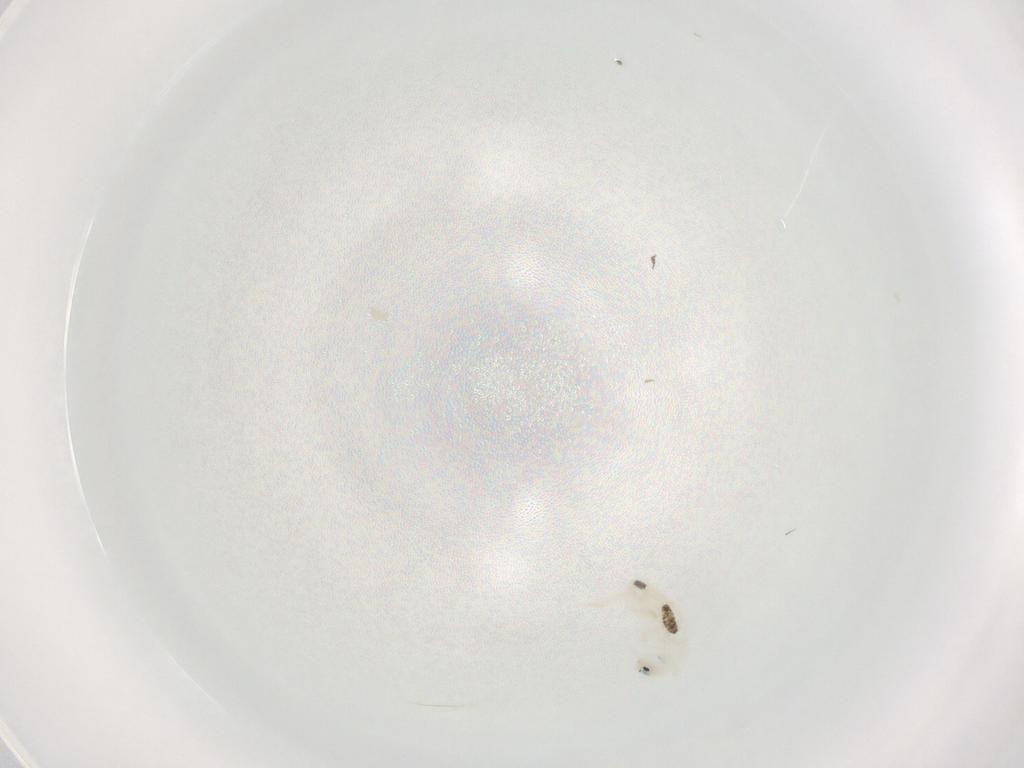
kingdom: Animalia
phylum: Arthropoda
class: Collembola
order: Entomobryomorpha
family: Entomobryidae
